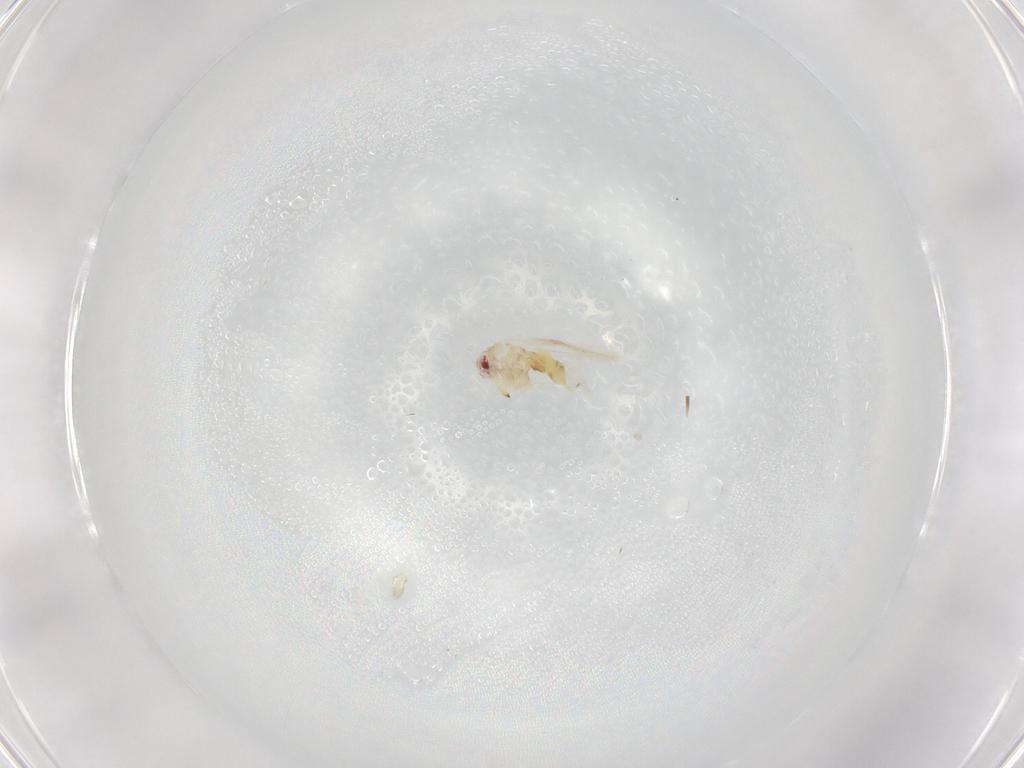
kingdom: Animalia
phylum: Arthropoda
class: Insecta
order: Hemiptera
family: Aleyrodidae
